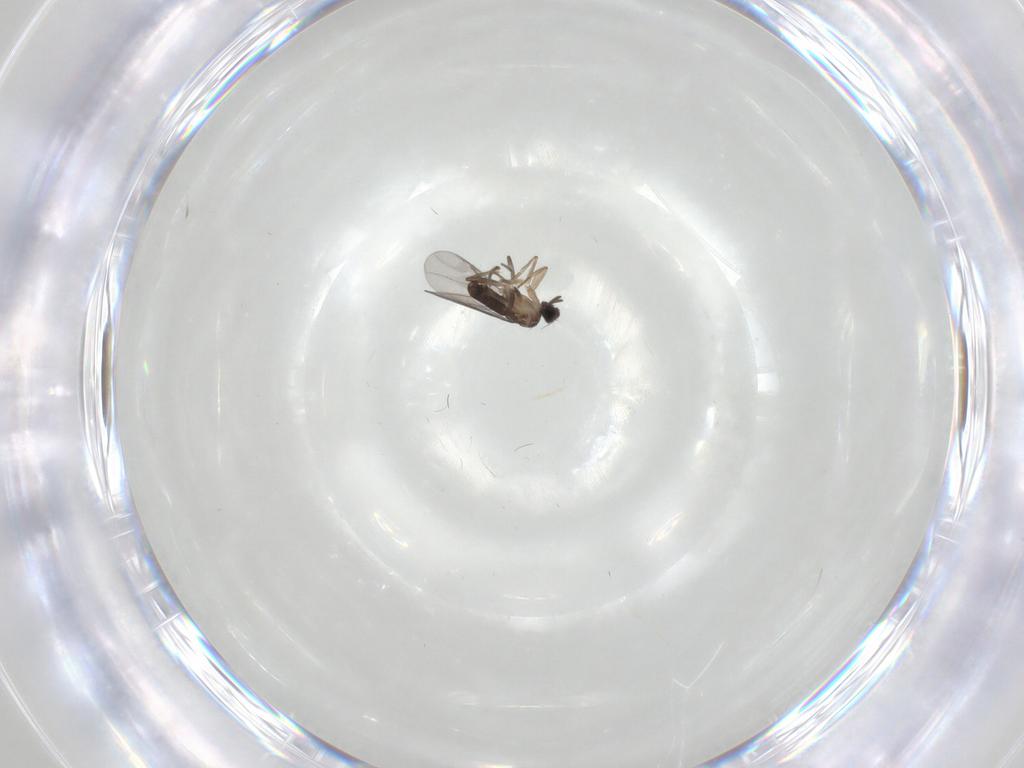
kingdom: Animalia
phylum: Arthropoda
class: Insecta
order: Diptera
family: Chironomidae
